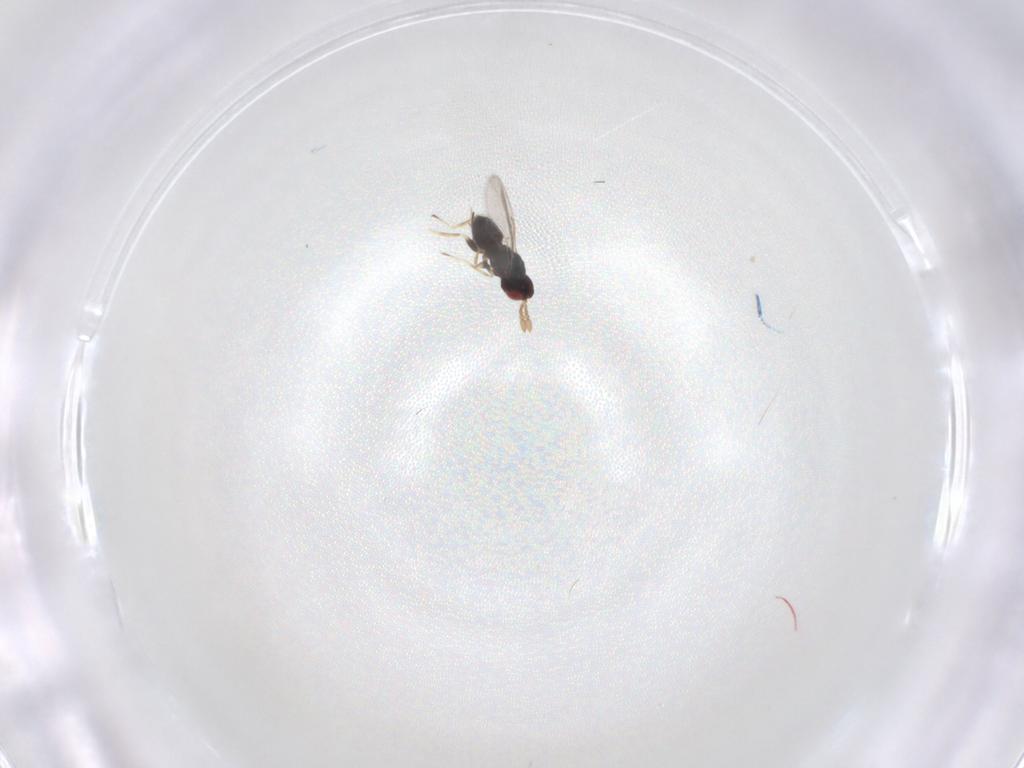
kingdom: Animalia
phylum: Arthropoda
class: Insecta
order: Hymenoptera
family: Eulophidae
